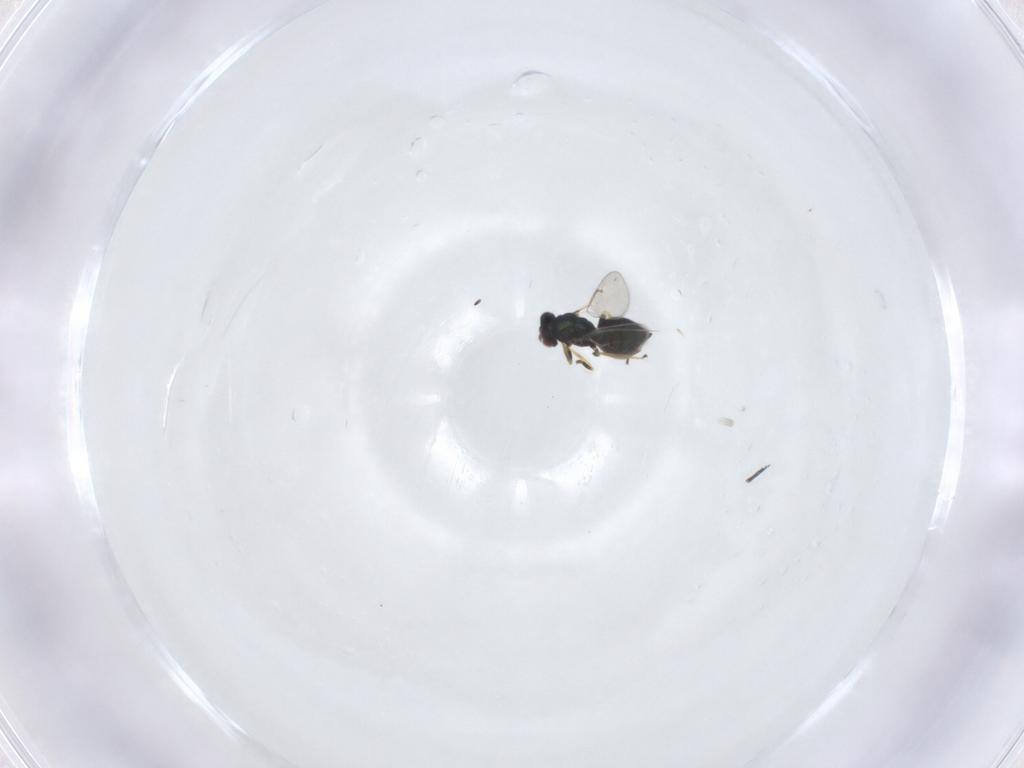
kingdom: Animalia
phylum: Arthropoda
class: Insecta
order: Hymenoptera
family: Eulophidae
